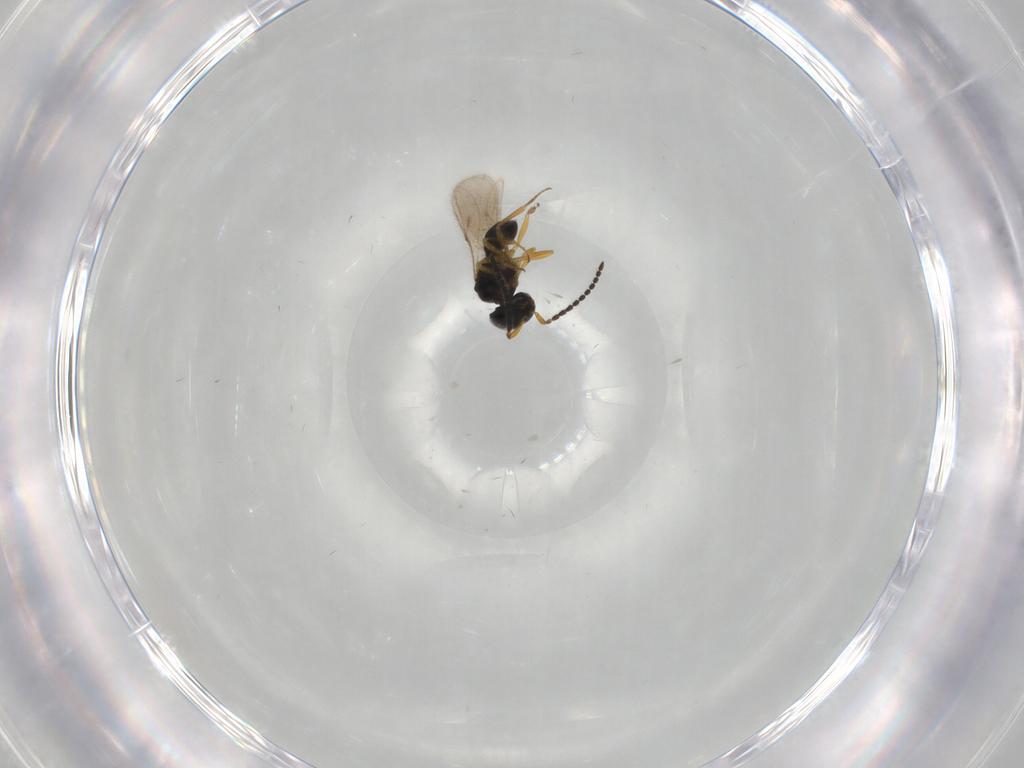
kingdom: Animalia
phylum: Arthropoda
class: Insecta
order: Hymenoptera
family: Scelionidae
